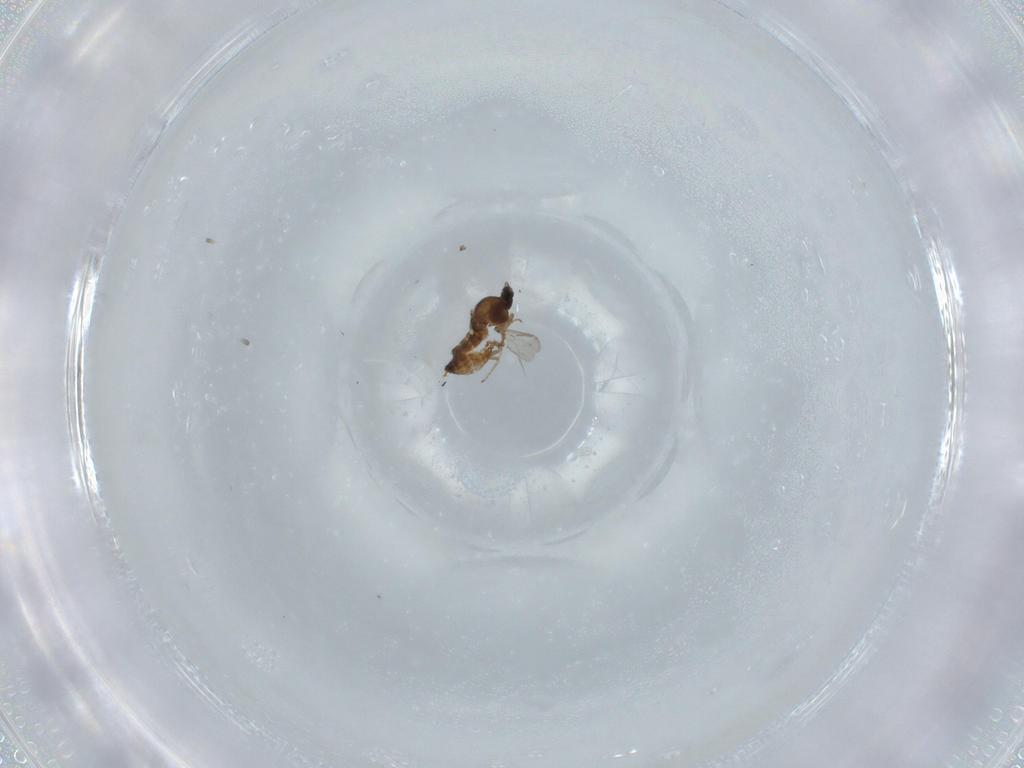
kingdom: Animalia
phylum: Arthropoda
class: Insecta
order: Diptera
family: Ceratopogonidae
